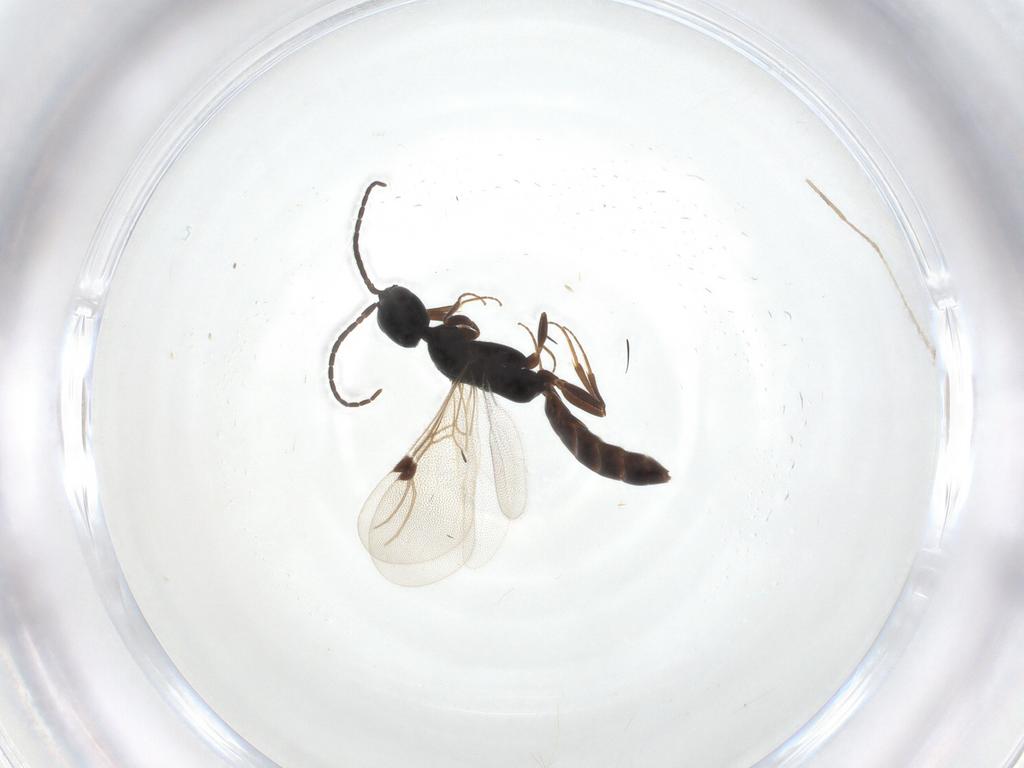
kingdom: Animalia
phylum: Arthropoda
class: Insecta
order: Hymenoptera
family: Bethylidae
